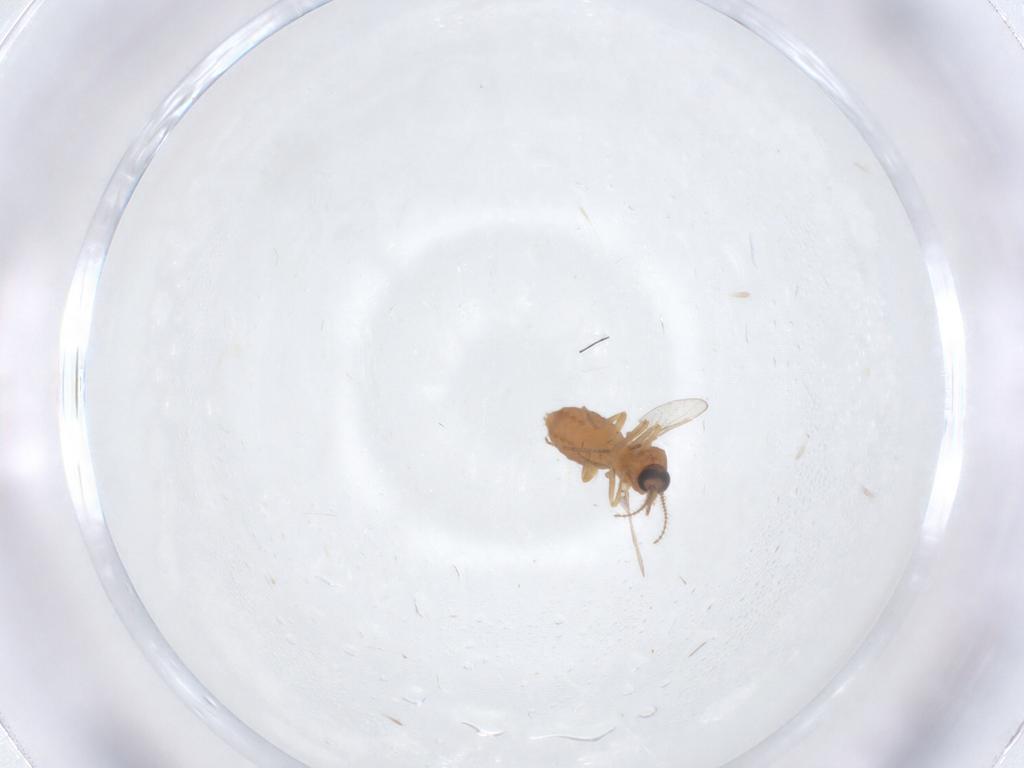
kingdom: Animalia
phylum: Arthropoda
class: Insecta
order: Diptera
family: Ceratopogonidae
